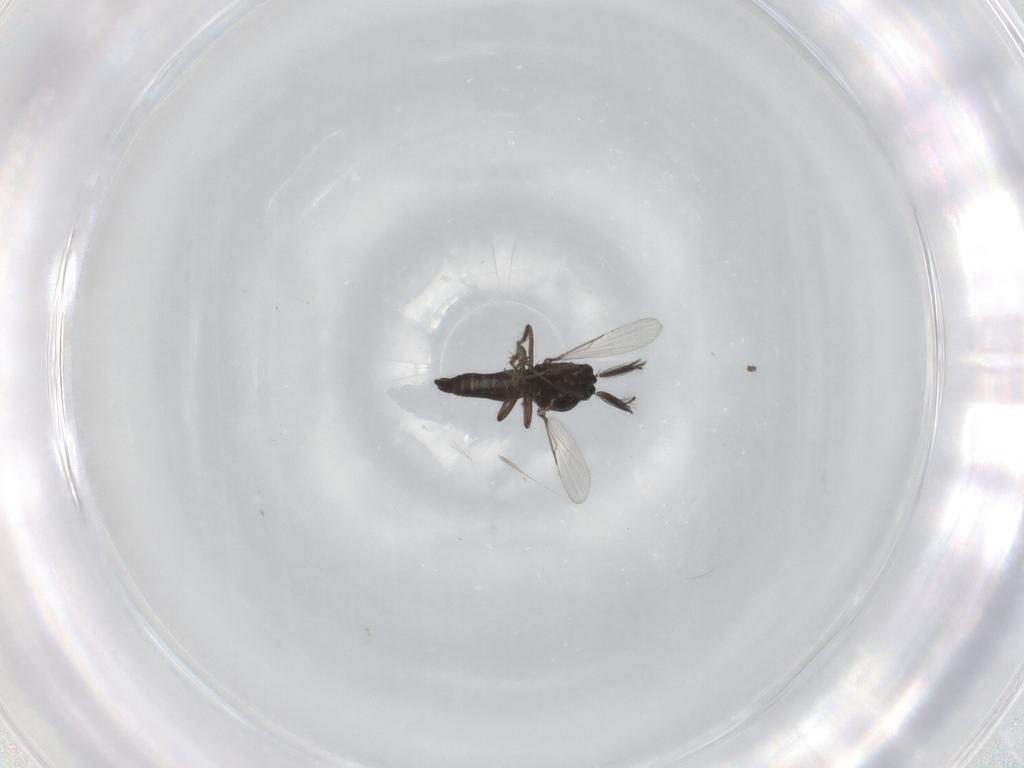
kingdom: Animalia
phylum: Arthropoda
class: Insecta
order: Diptera
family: Ceratopogonidae
